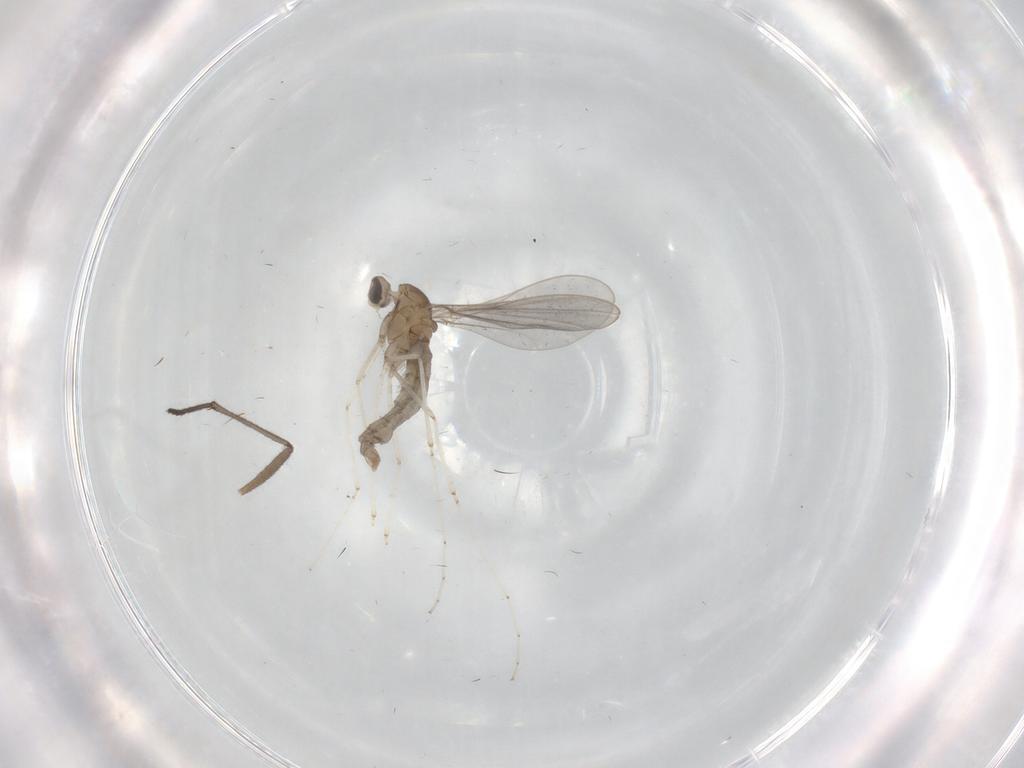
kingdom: Animalia
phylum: Arthropoda
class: Insecta
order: Diptera
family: Cecidomyiidae
